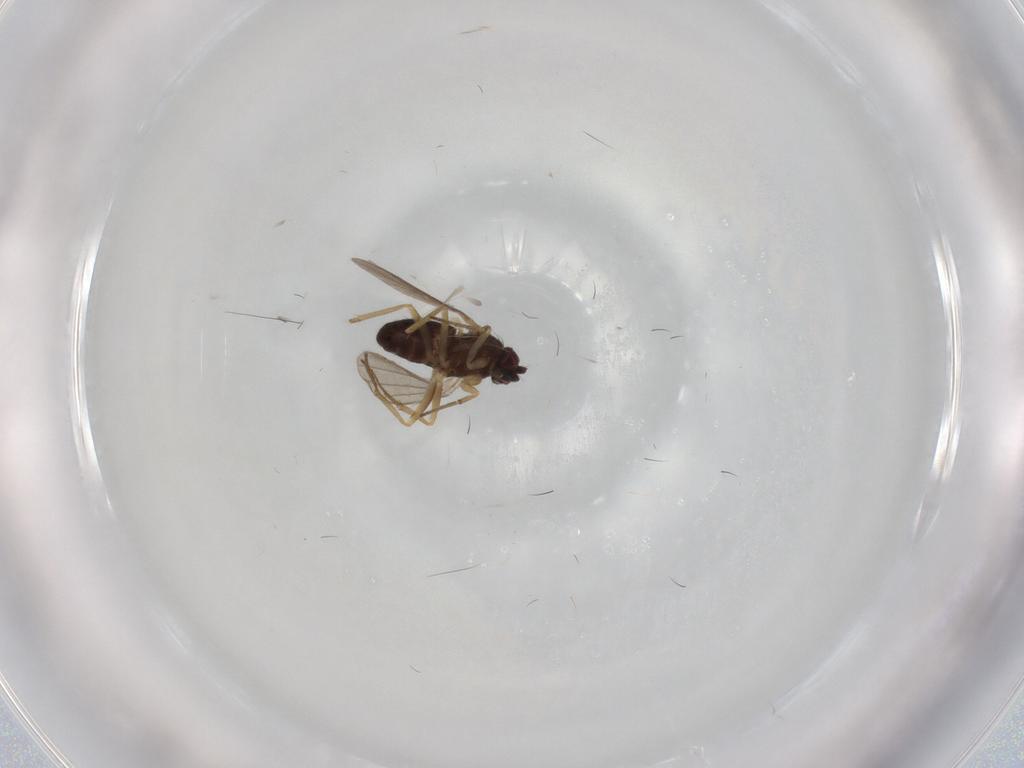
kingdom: Animalia
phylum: Arthropoda
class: Insecta
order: Diptera
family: Dolichopodidae
